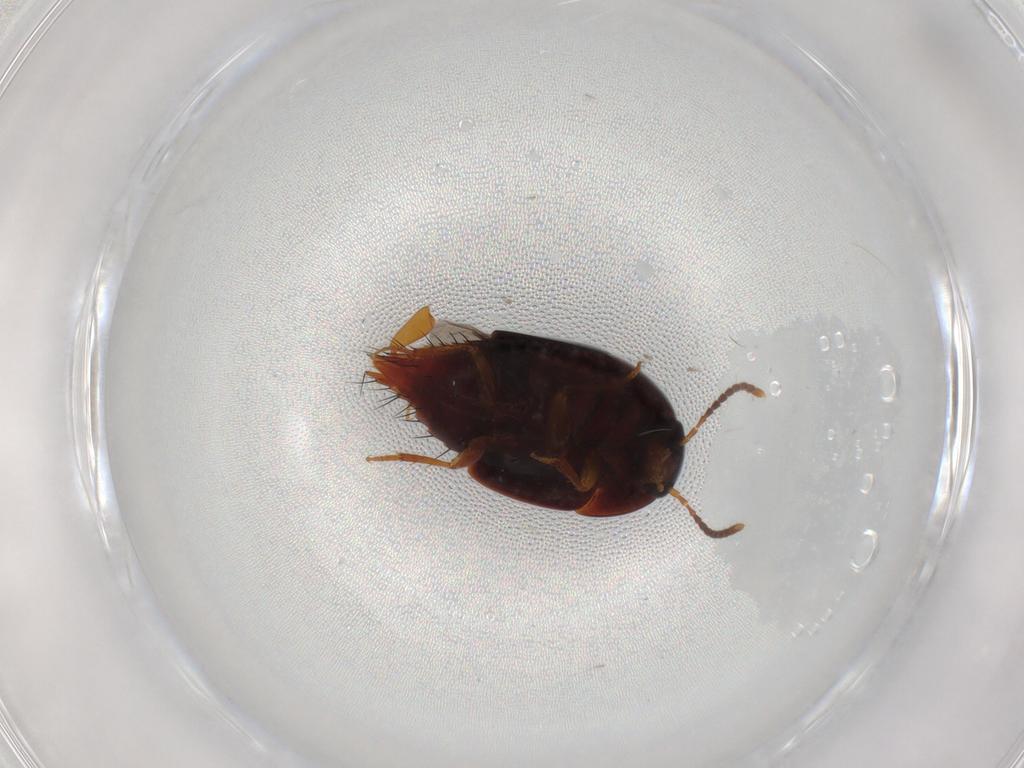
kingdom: Animalia
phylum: Arthropoda
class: Insecta
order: Coleoptera
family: Staphylinidae
